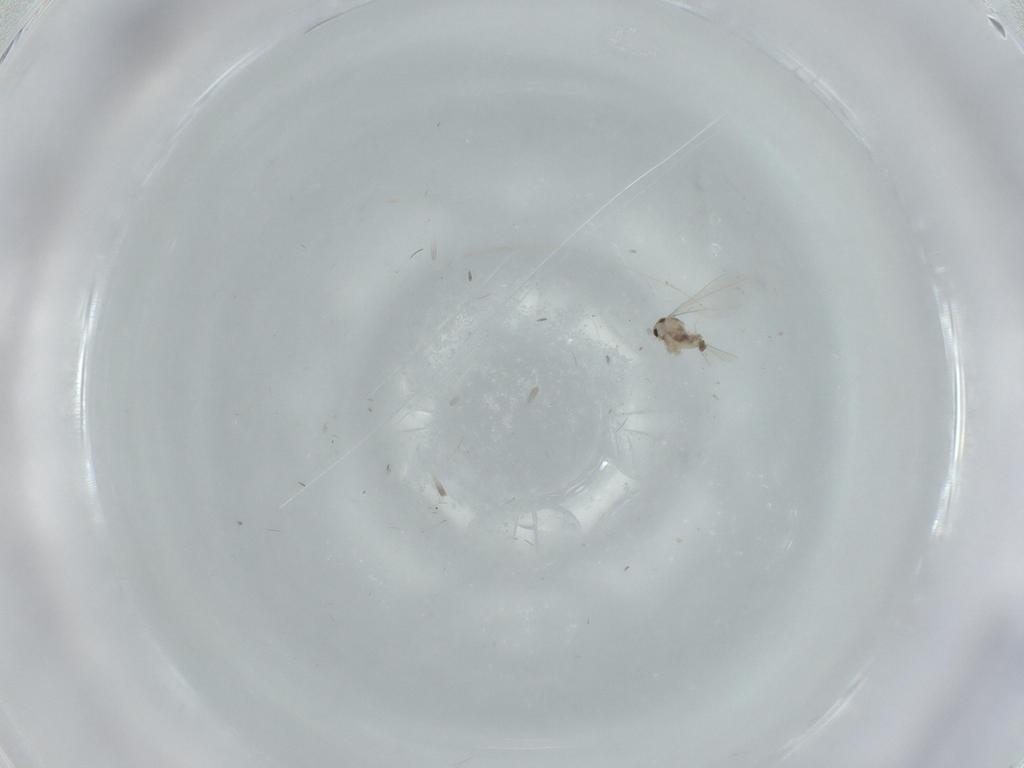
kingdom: Animalia
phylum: Arthropoda
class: Insecta
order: Diptera
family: Cecidomyiidae
